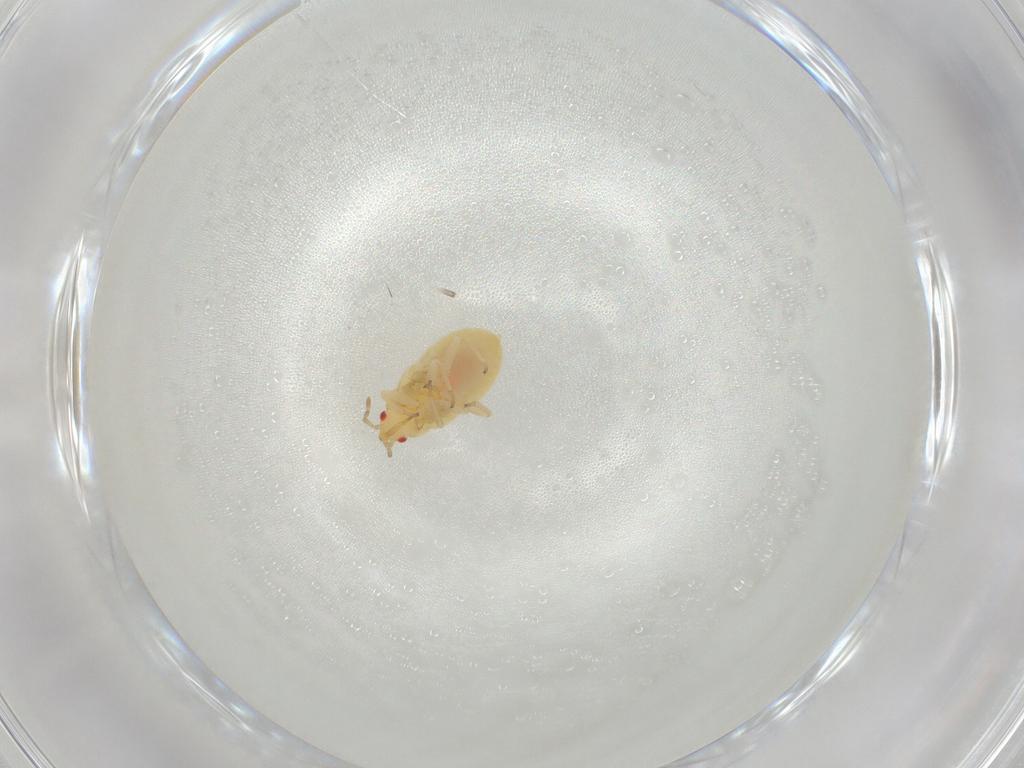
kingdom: Animalia
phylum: Arthropoda
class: Insecta
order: Hemiptera
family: Anthocoridae
